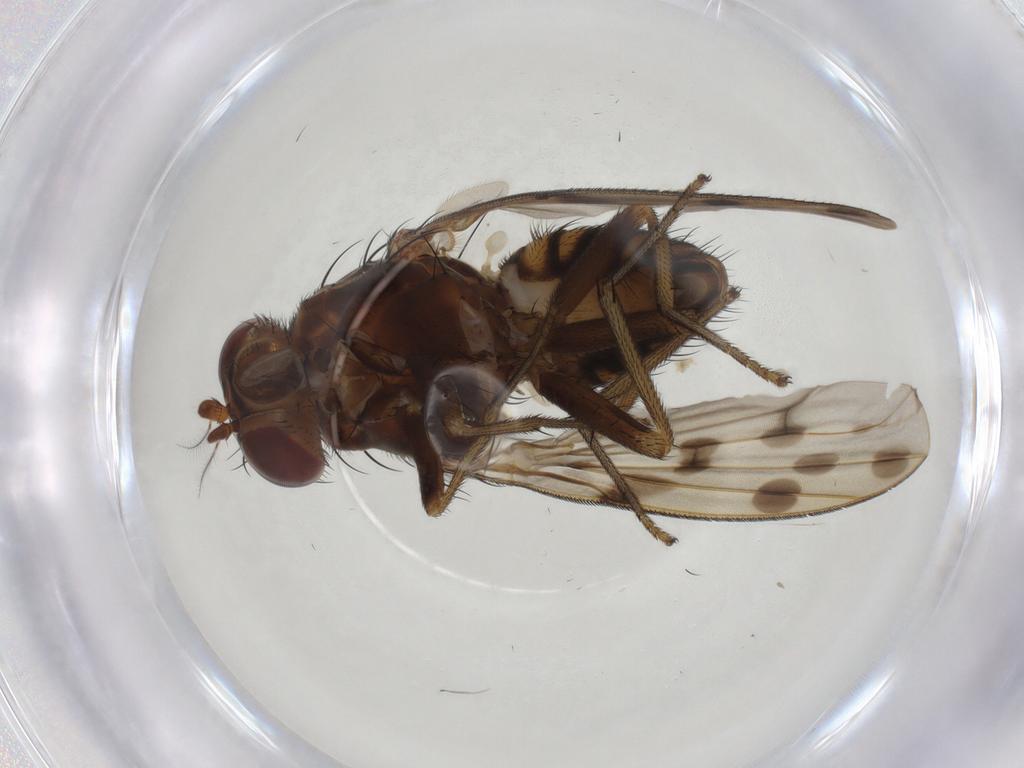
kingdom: Animalia
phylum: Arthropoda
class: Insecta
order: Diptera
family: Lauxaniidae
